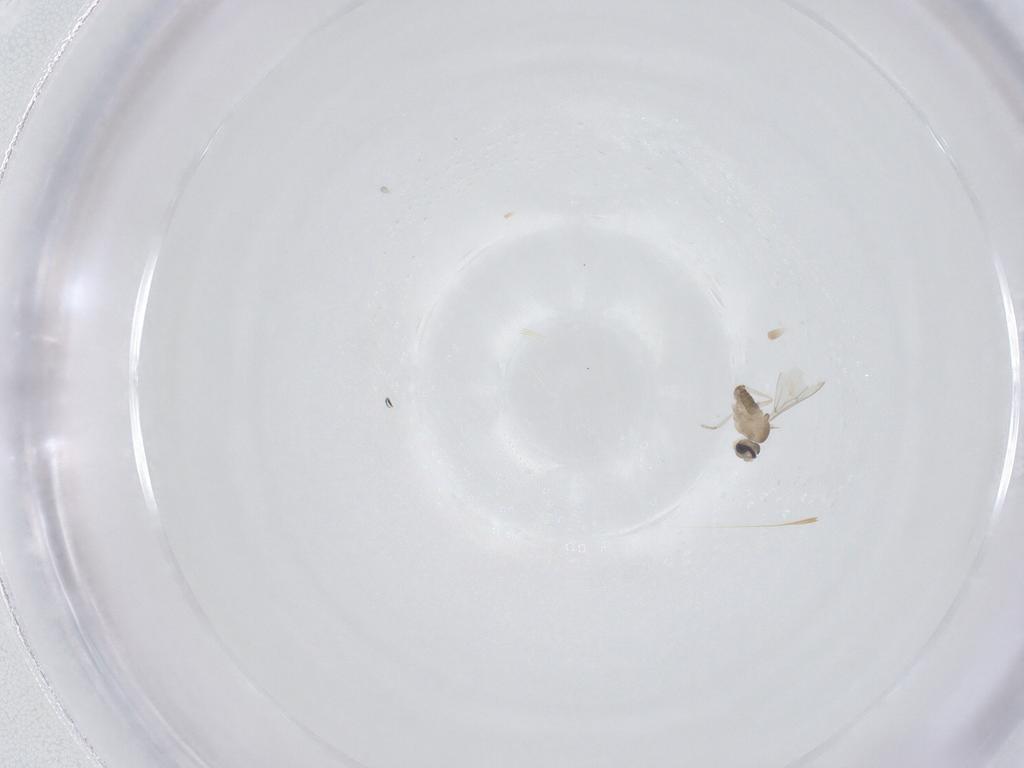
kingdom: Animalia
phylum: Arthropoda
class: Insecta
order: Diptera
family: Cecidomyiidae
